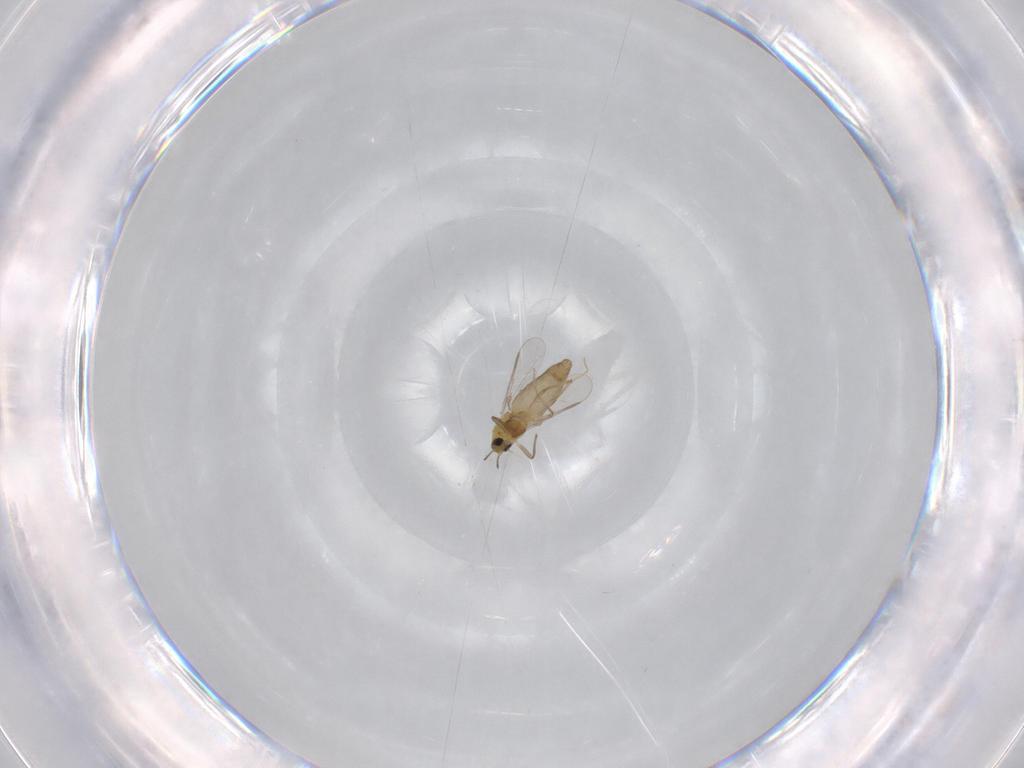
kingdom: Animalia
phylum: Arthropoda
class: Insecta
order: Diptera
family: Chironomidae
